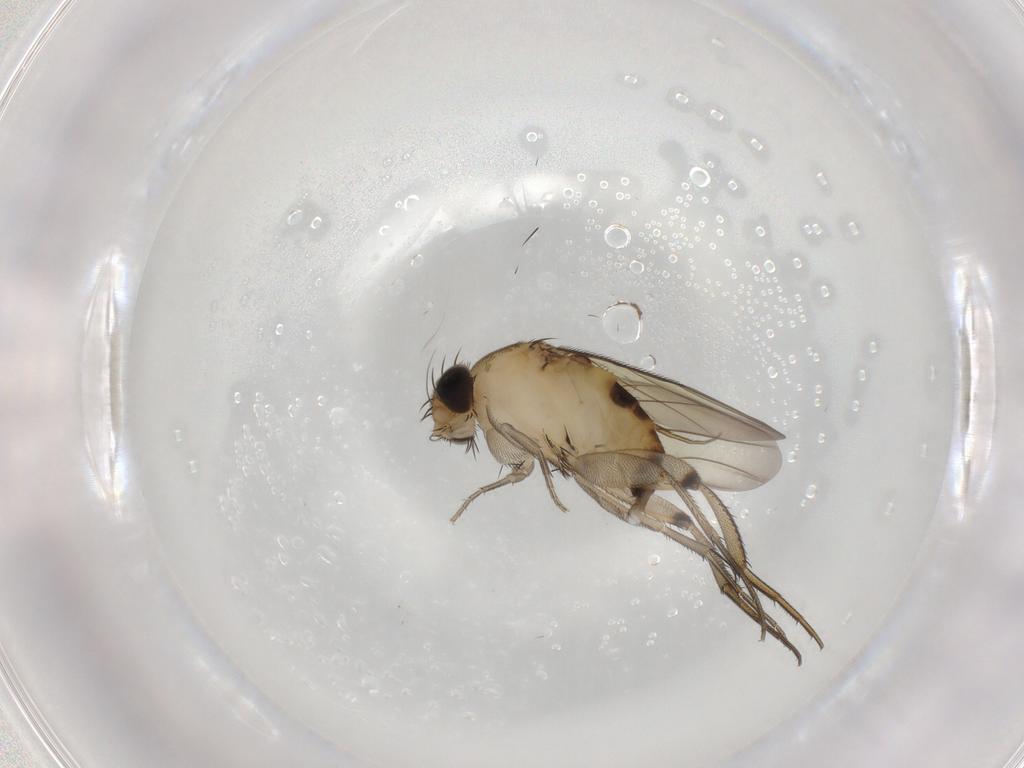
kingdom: Animalia
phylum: Arthropoda
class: Insecta
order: Diptera
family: Phoridae
